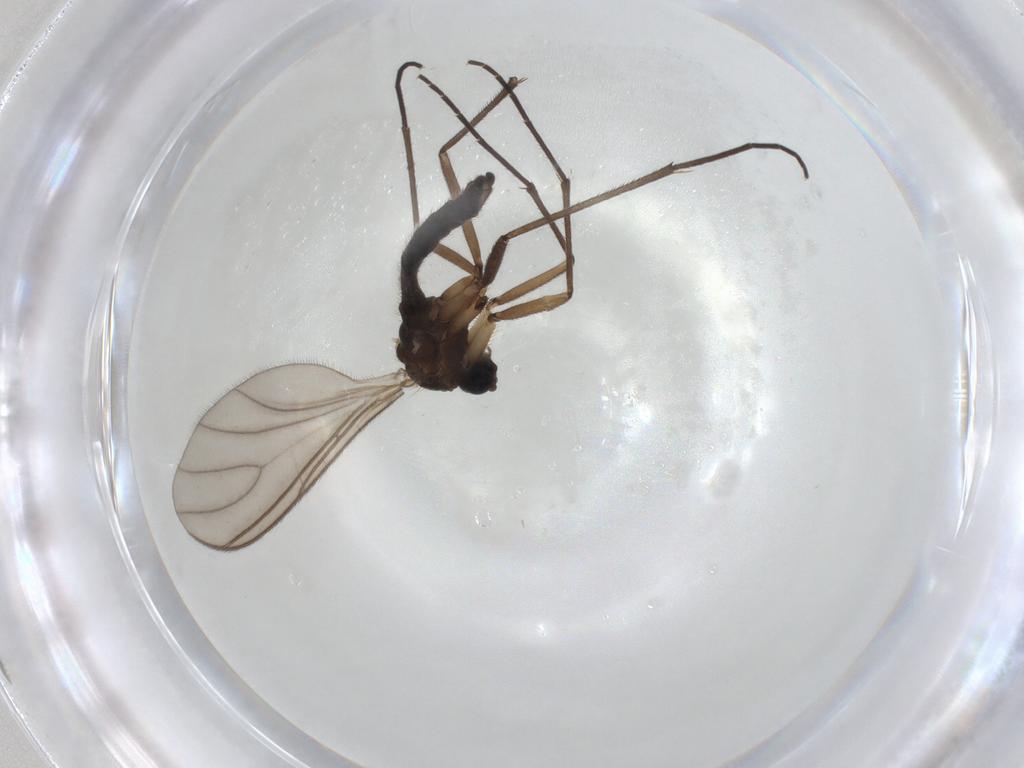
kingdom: Animalia
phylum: Arthropoda
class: Insecta
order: Diptera
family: Sciaridae
